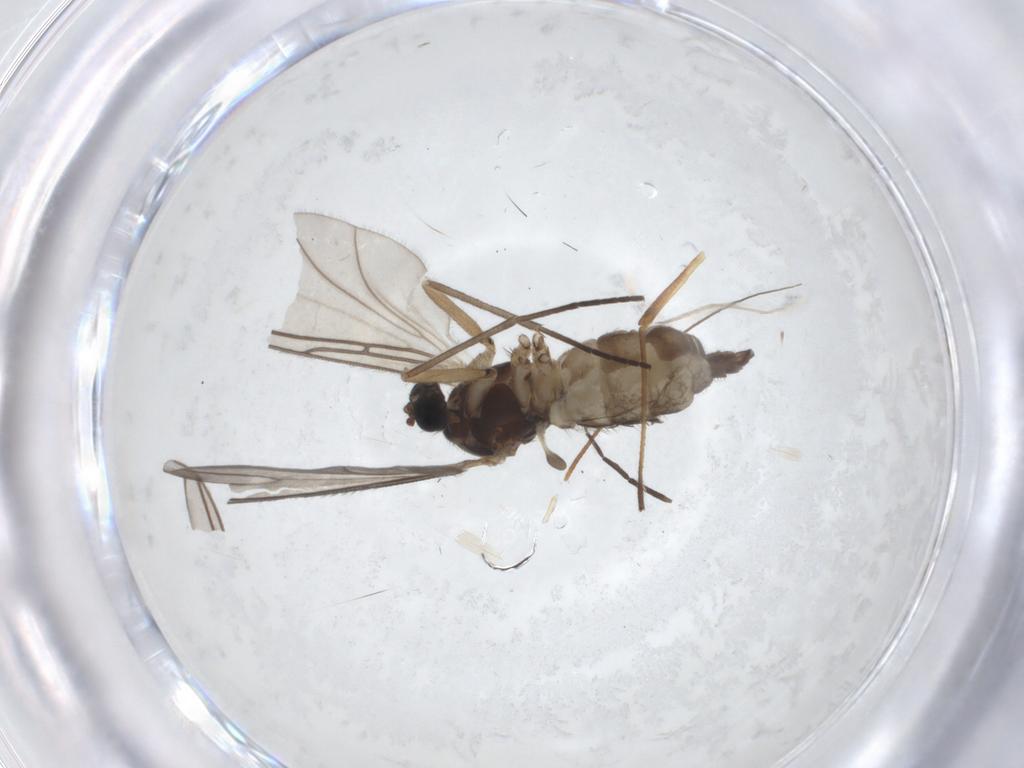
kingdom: Animalia
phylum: Arthropoda
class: Insecta
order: Diptera
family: Sciaridae
